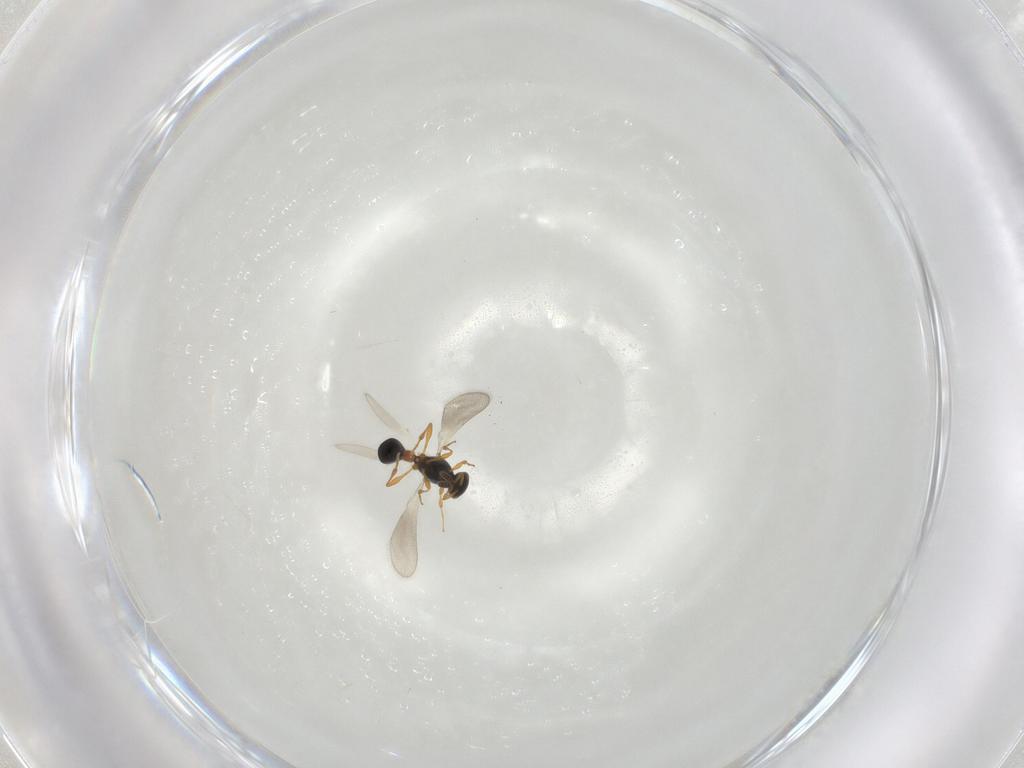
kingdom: Animalia
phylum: Arthropoda
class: Insecta
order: Hymenoptera
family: Platygastridae
